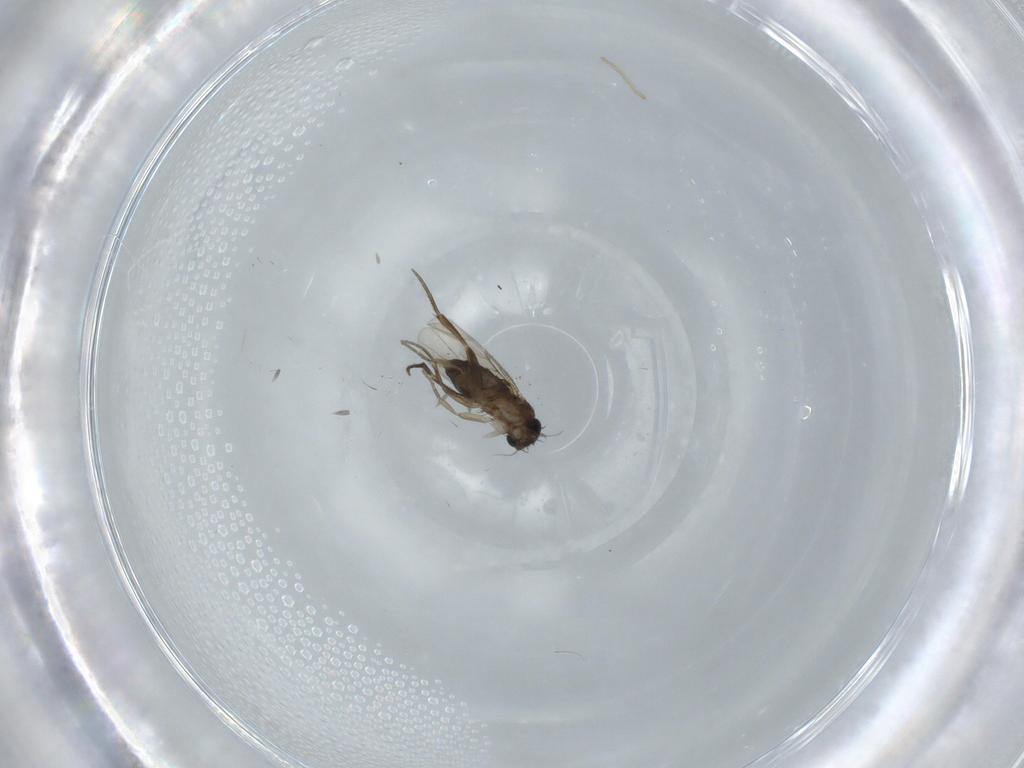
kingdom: Animalia
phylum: Arthropoda
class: Insecta
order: Diptera
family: Phoridae
